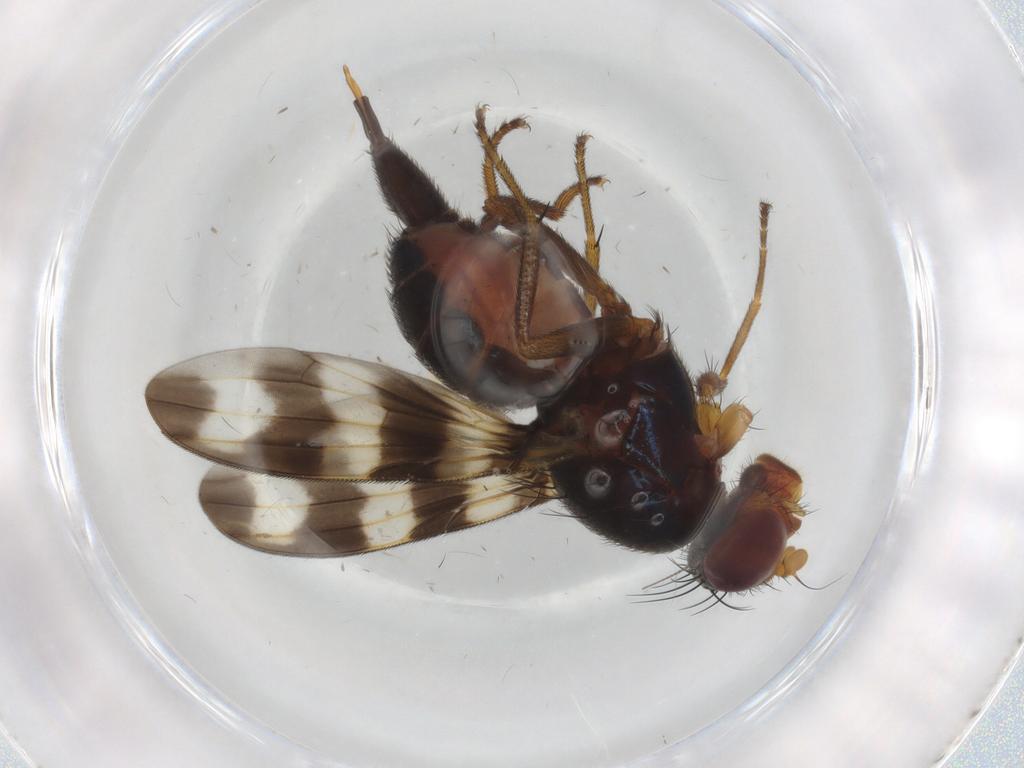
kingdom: Animalia
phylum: Arthropoda
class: Insecta
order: Diptera
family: Ulidiidae
